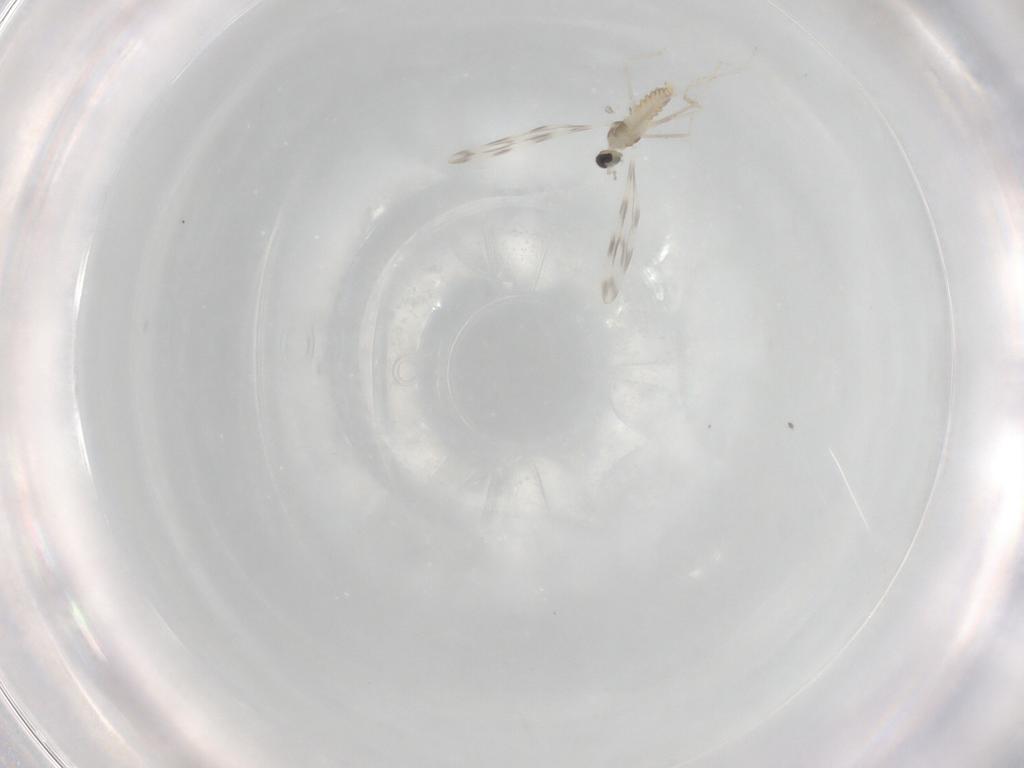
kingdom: Animalia
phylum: Arthropoda
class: Insecta
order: Diptera
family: Cecidomyiidae
